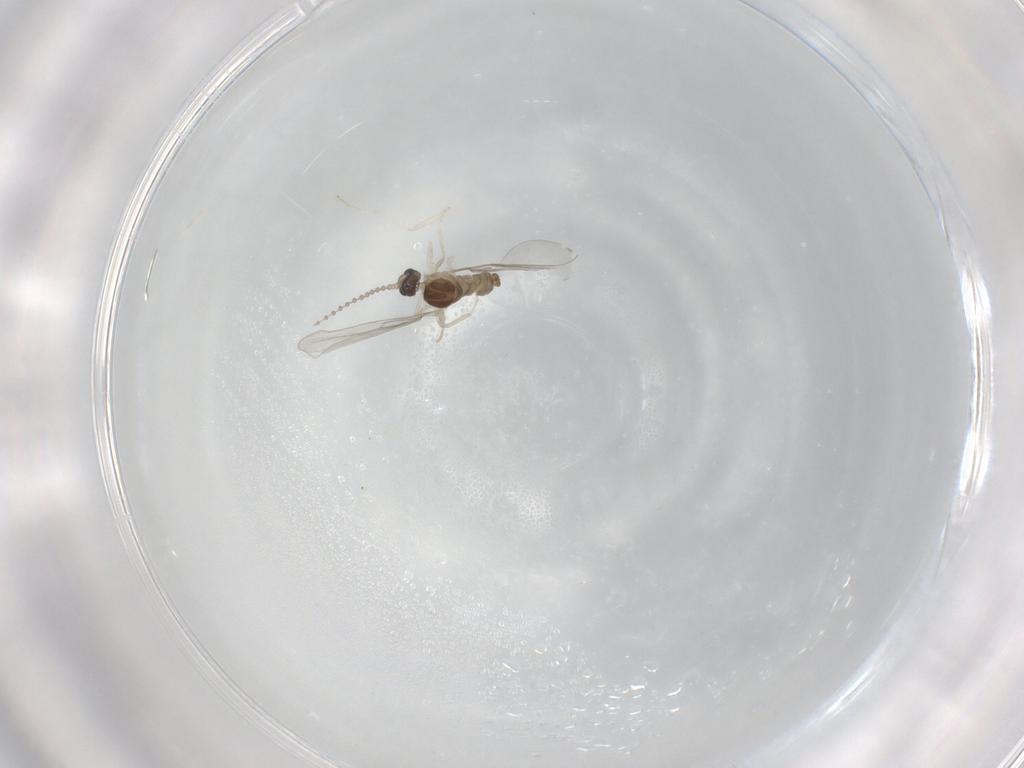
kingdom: Animalia
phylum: Arthropoda
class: Insecta
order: Diptera
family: Cecidomyiidae
